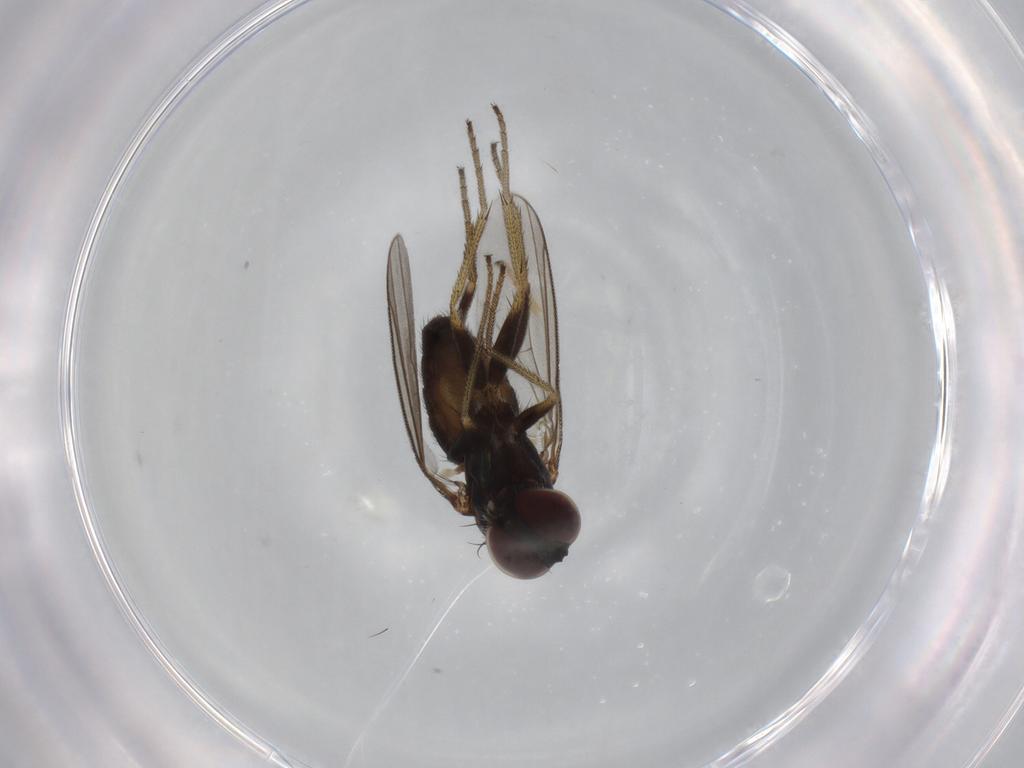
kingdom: Animalia
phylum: Arthropoda
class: Insecta
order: Diptera
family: Dolichopodidae
